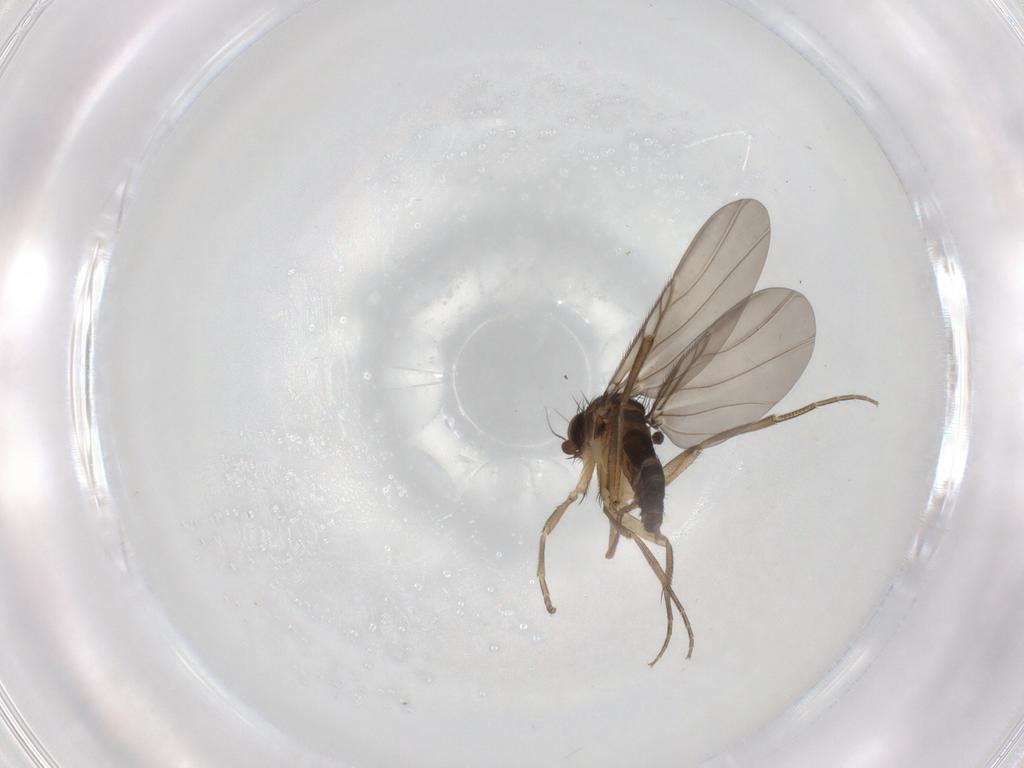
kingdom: Animalia
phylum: Arthropoda
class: Insecta
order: Diptera
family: Phoridae
